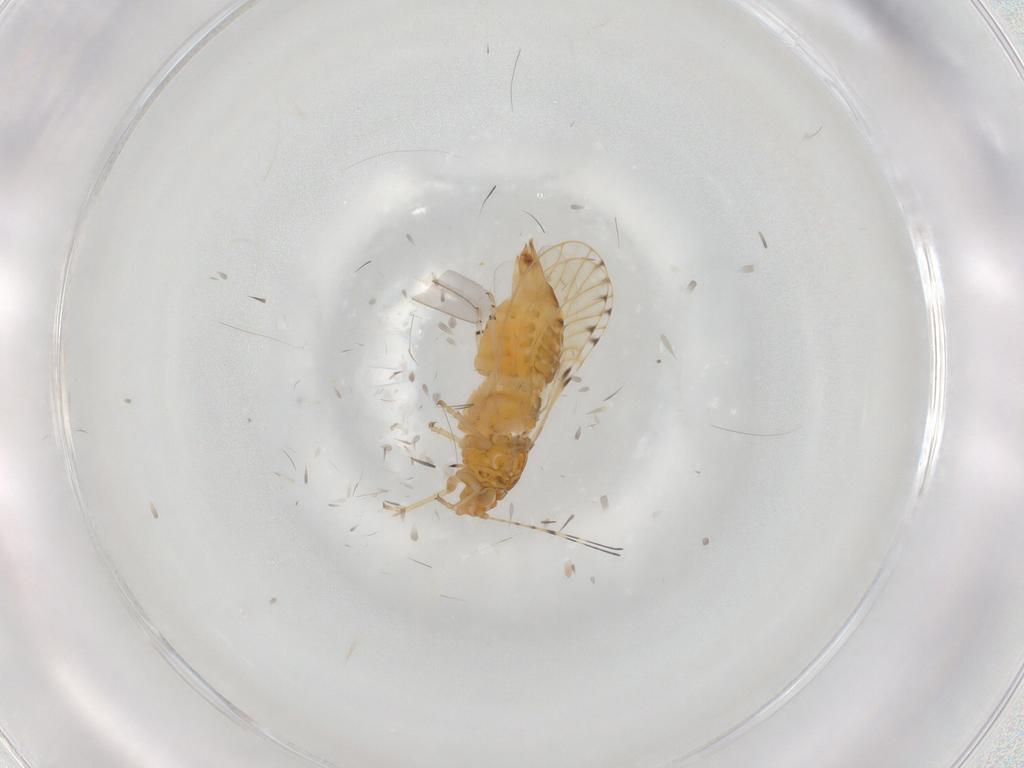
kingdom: Animalia
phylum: Arthropoda
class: Insecta
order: Hemiptera
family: Psylloidea_incertae_sedis
